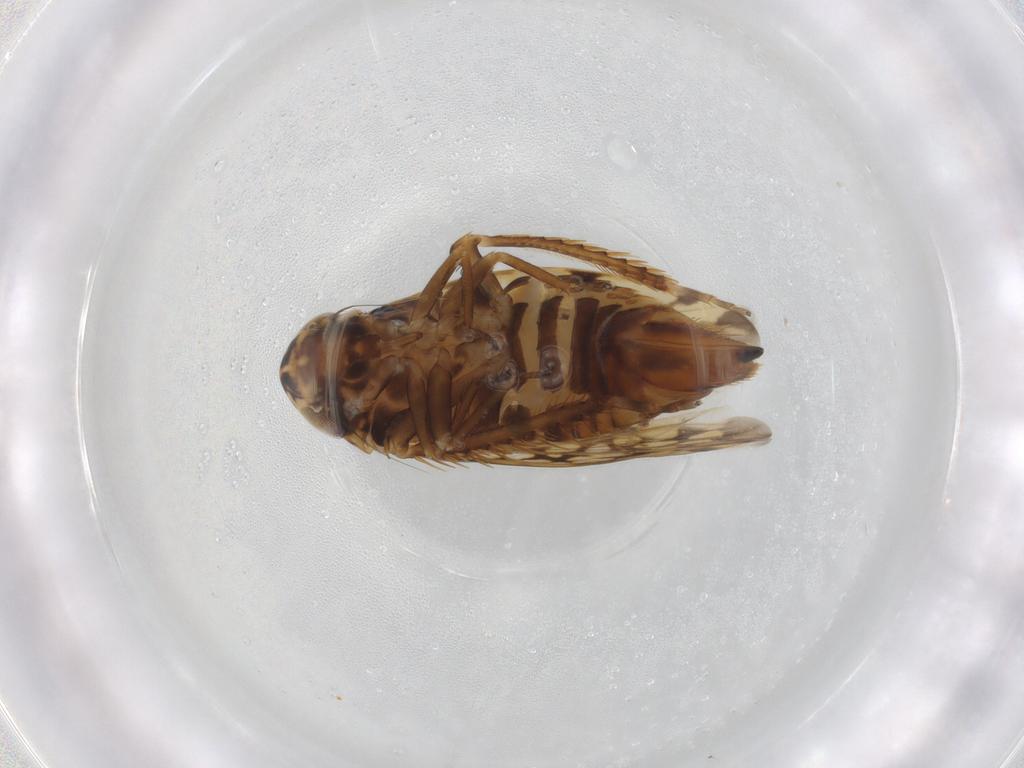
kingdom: Animalia
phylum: Arthropoda
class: Insecta
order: Hemiptera
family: Cicadellidae
